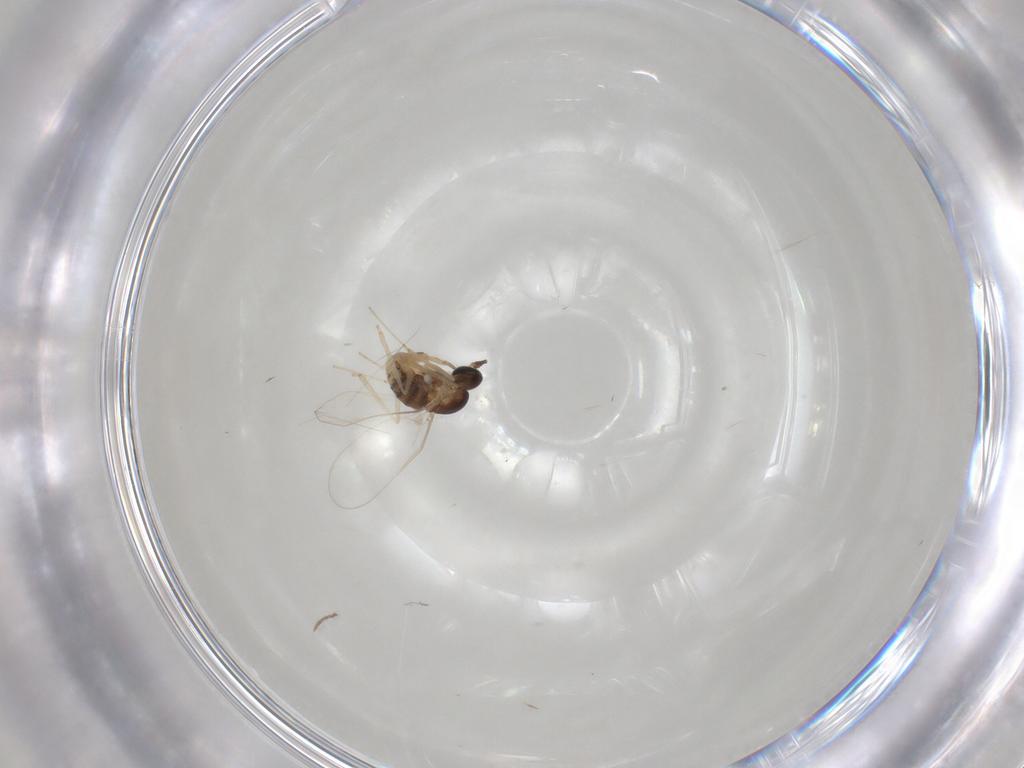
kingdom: Animalia
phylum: Arthropoda
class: Insecta
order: Diptera
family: Cecidomyiidae
